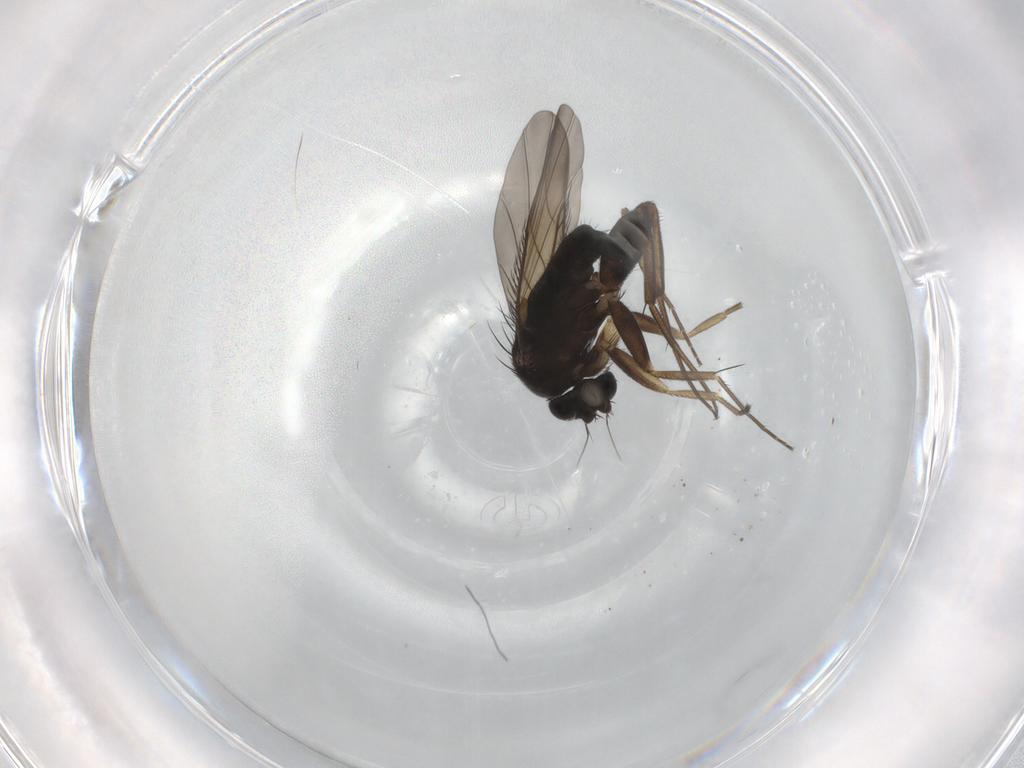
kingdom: Animalia
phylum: Arthropoda
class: Insecta
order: Diptera
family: Phoridae
